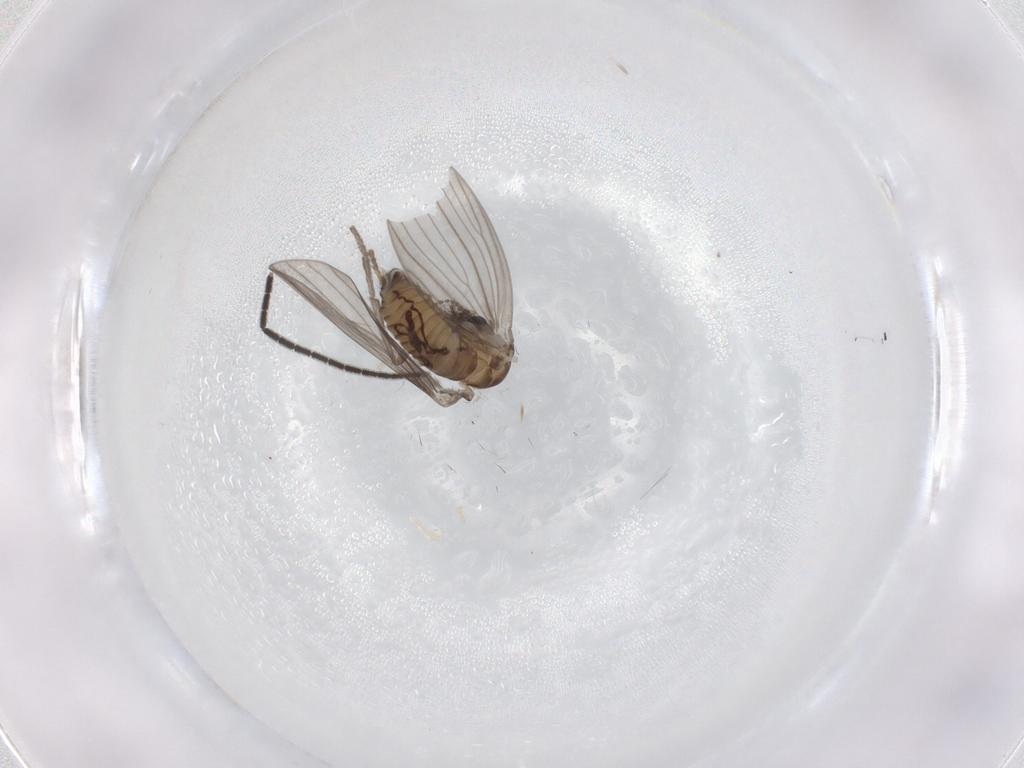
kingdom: Animalia
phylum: Arthropoda
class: Insecta
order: Diptera
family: Psychodidae
